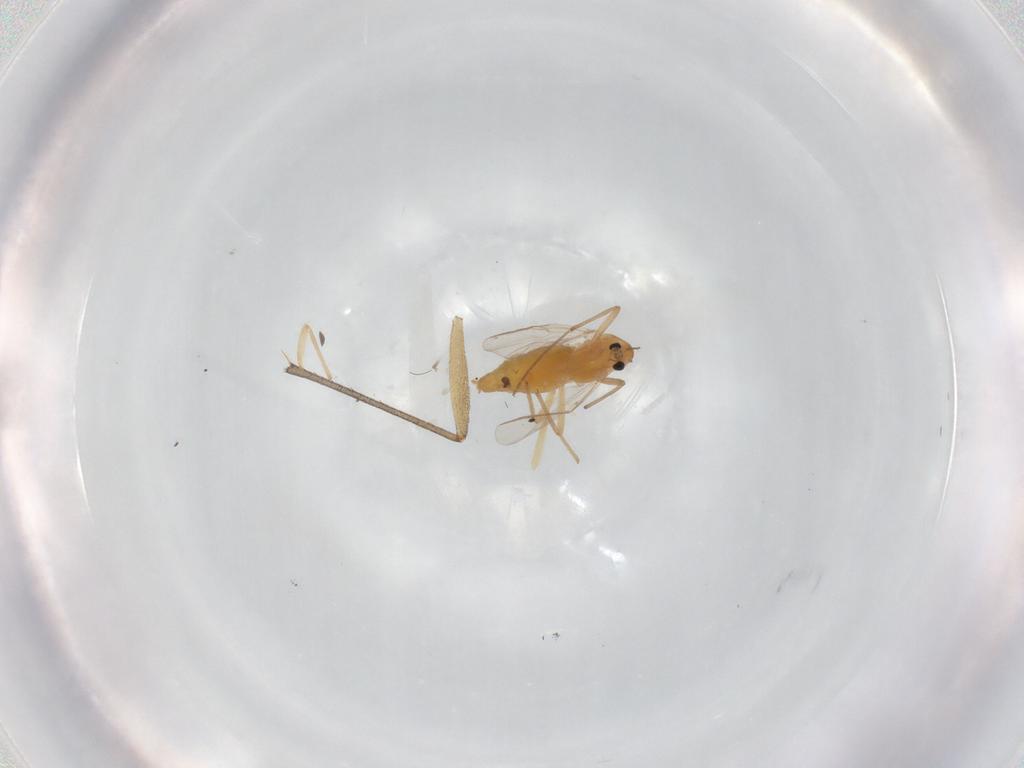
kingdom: Animalia
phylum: Arthropoda
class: Insecta
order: Diptera
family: Chironomidae
